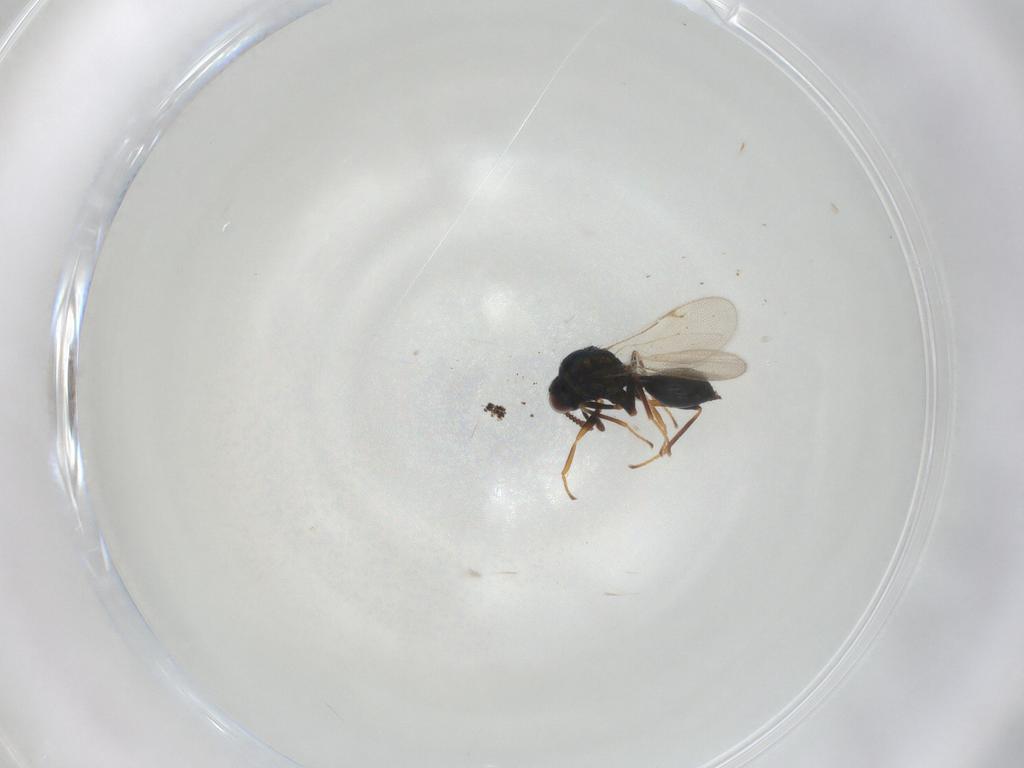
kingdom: Animalia
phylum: Arthropoda
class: Insecta
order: Hymenoptera
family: Chalcidoidea_incertae_sedis
